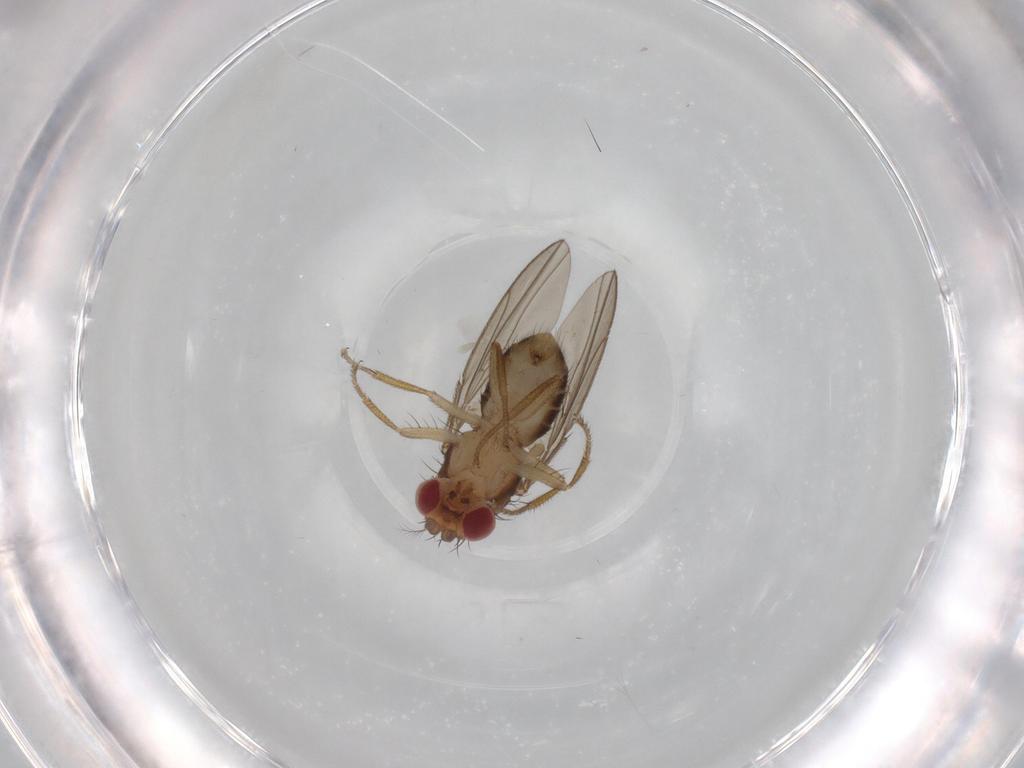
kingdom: Animalia
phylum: Arthropoda
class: Insecta
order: Diptera
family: Drosophilidae
